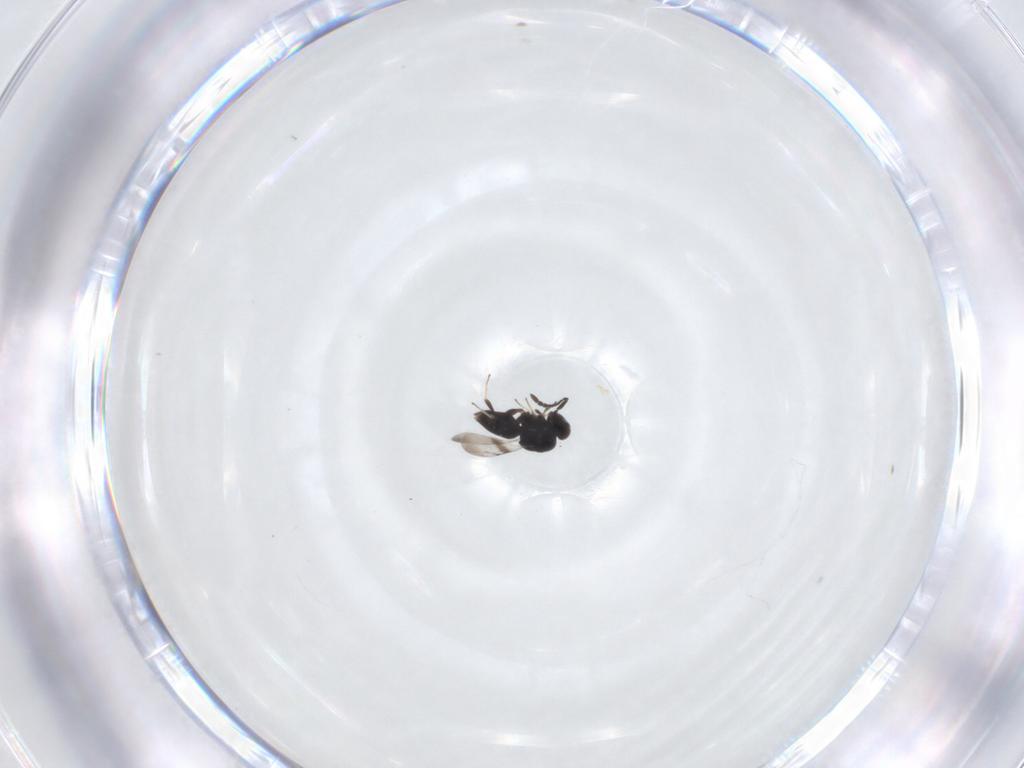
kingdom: Animalia
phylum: Arthropoda
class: Insecta
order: Hymenoptera
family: Ceraphronidae
